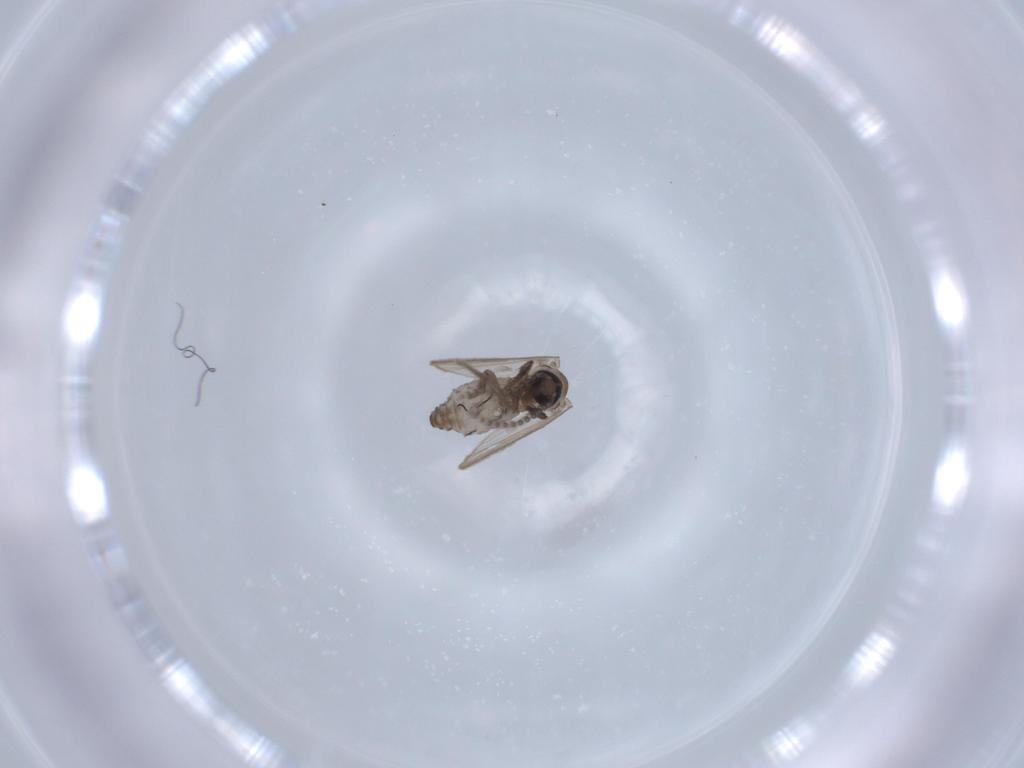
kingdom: Animalia
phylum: Arthropoda
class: Insecta
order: Diptera
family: Psychodidae
